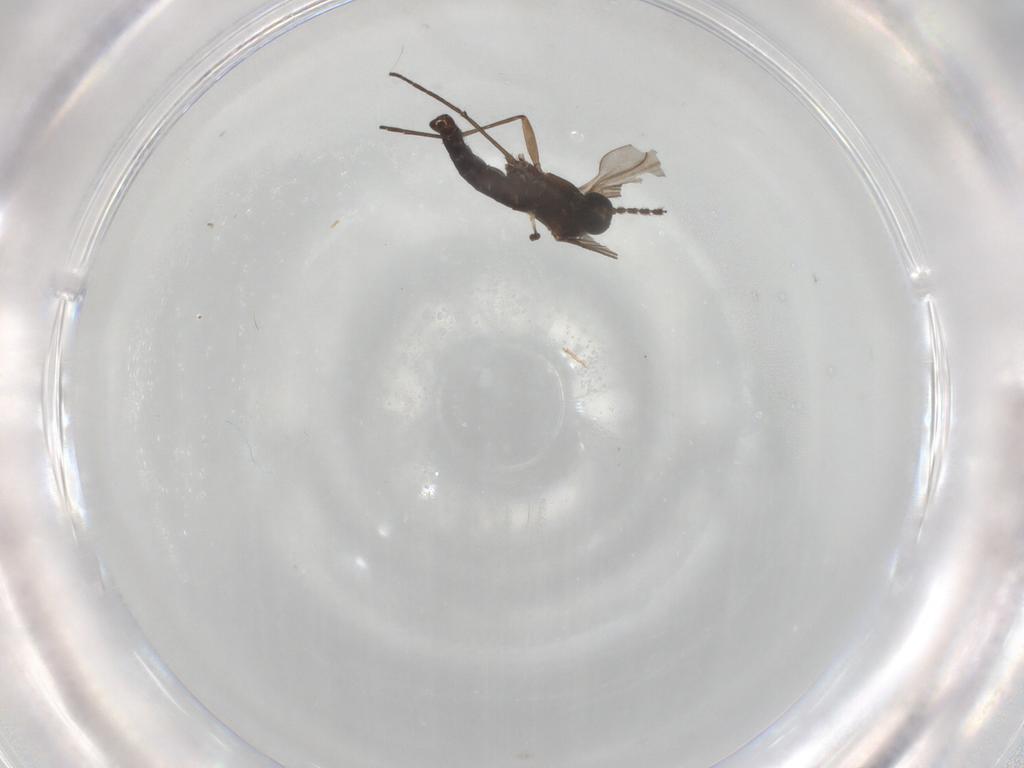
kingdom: Animalia
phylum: Arthropoda
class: Insecta
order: Diptera
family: Sciaridae
